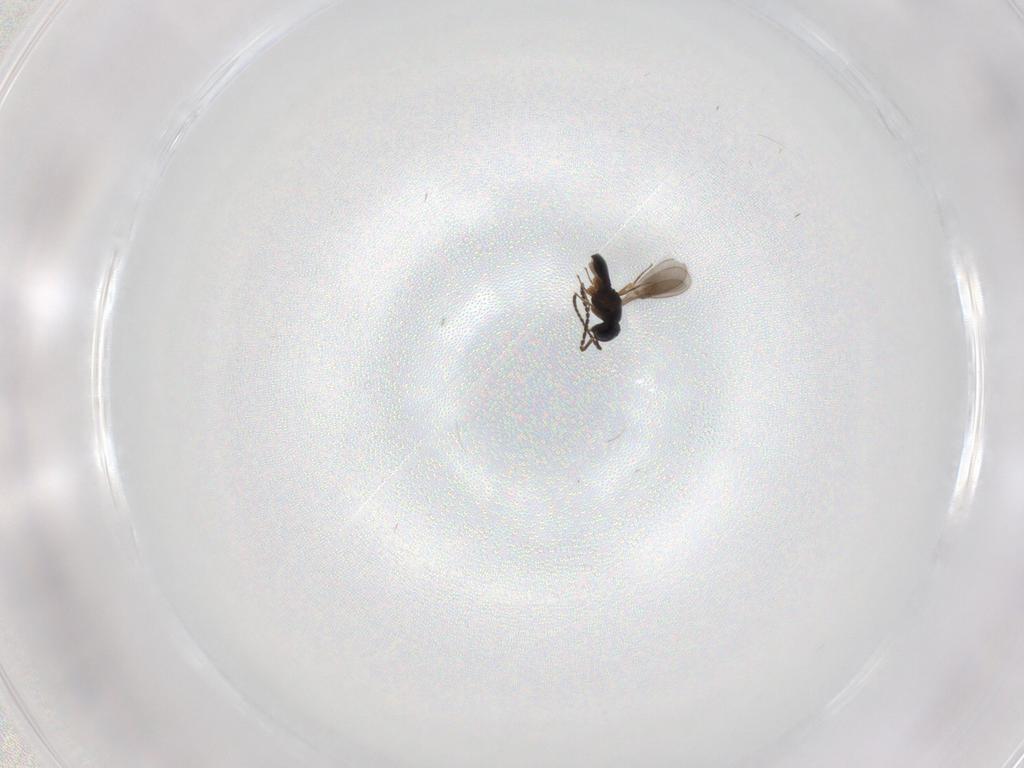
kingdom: Animalia
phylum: Arthropoda
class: Insecta
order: Hymenoptera
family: Scelionidae
